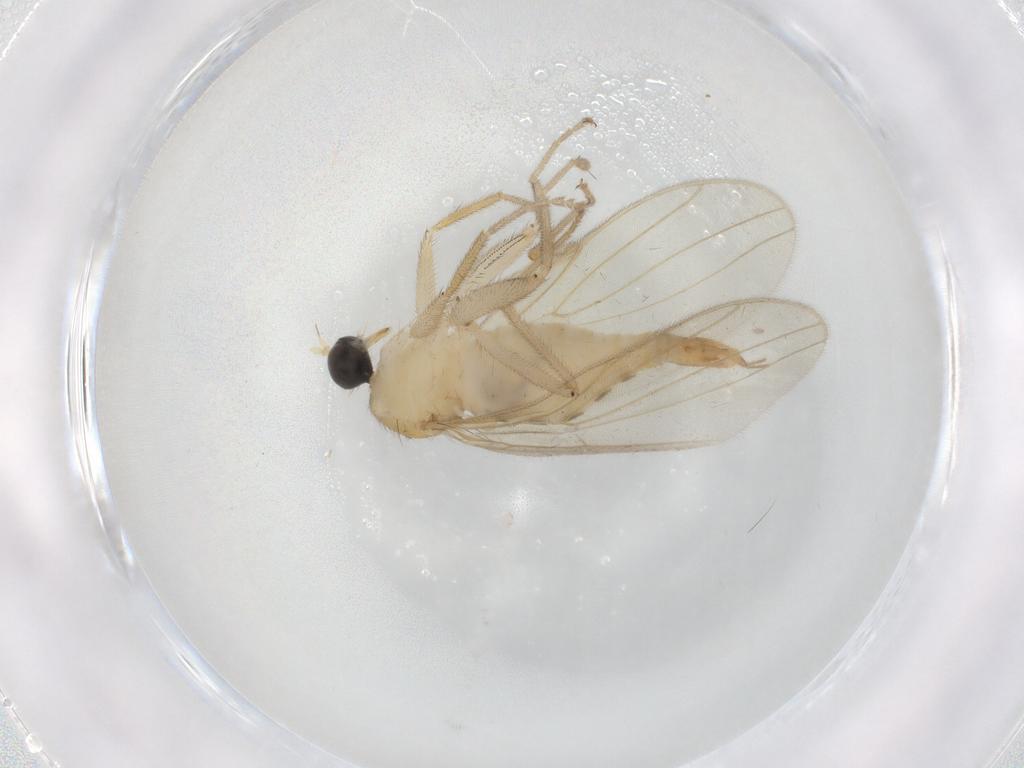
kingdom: Animalia
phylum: Arthropoda
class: Insecta
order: Diptera
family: Hybotidae
